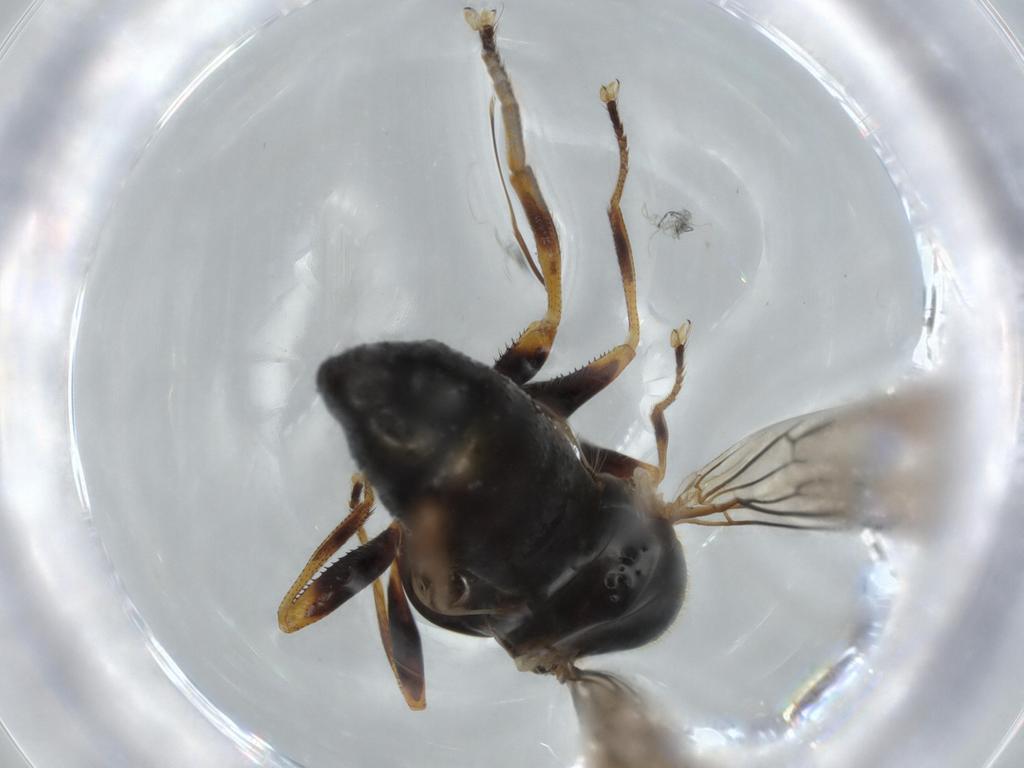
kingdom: Animalia
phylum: Arthropoda
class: Insecta
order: Diptera
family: Pipunculidae
